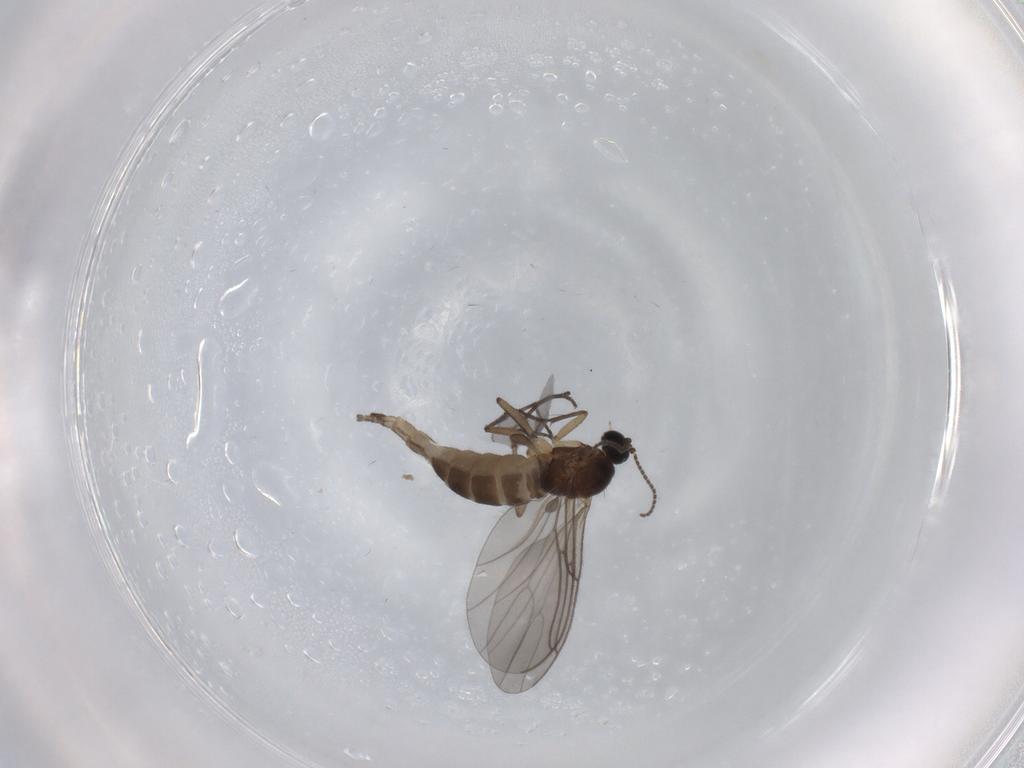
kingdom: Animalia
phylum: Arthropoda
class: Insecta
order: Diptera
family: Sciaridae
